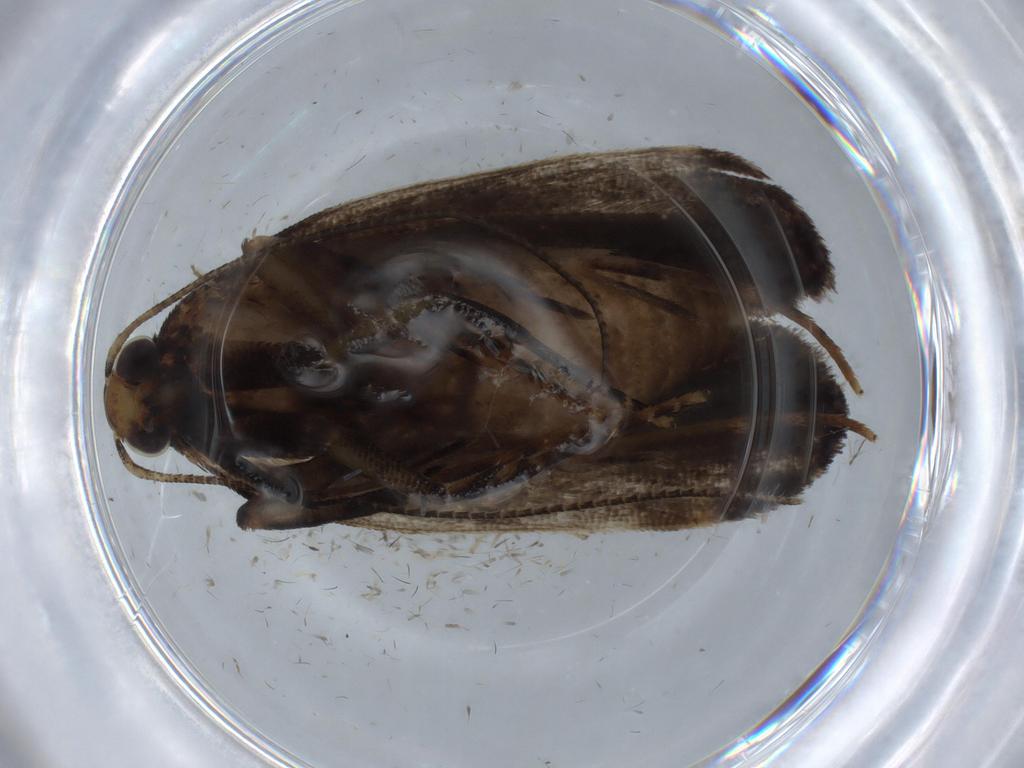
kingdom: Animalia
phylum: Arthropoda
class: Insecta
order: Lepidoptera
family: Gelechiidae
